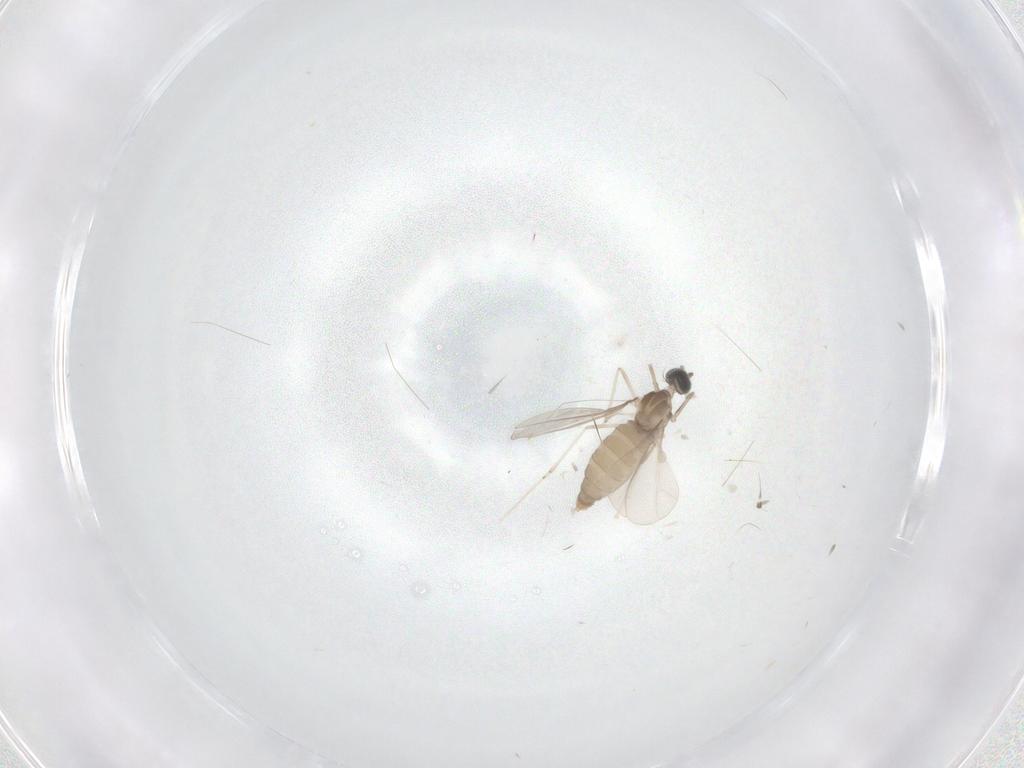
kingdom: Animalia
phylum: Arthropoda
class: Insecta
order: Diptera
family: Cecidomyiidae
